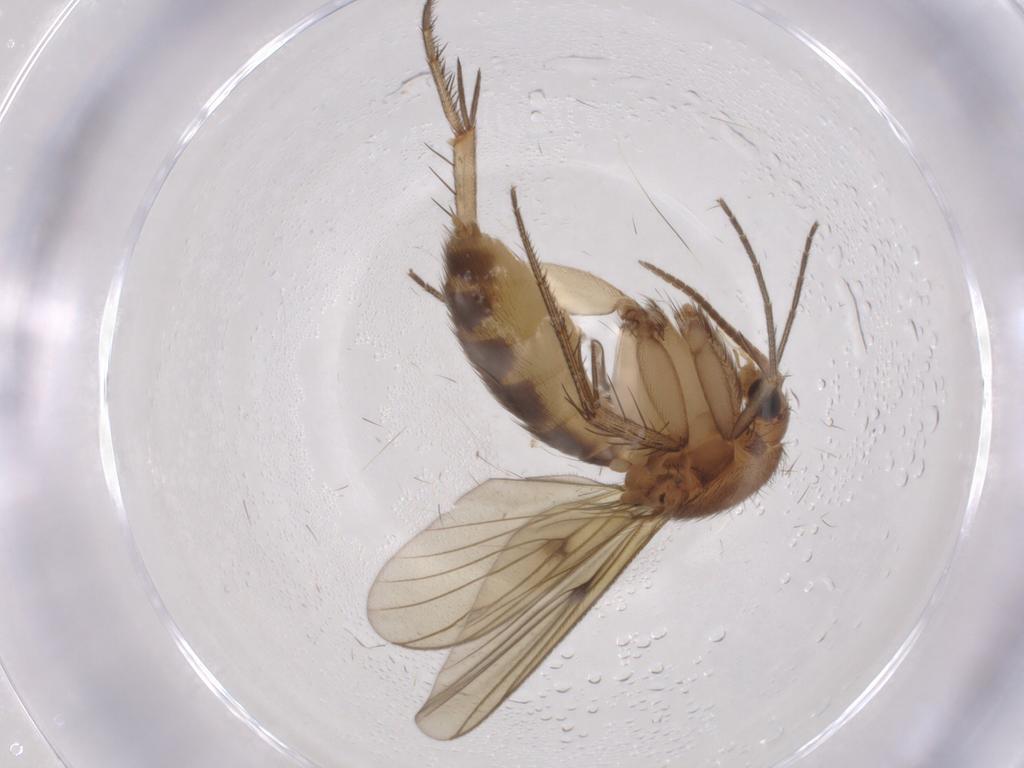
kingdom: Animalia
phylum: Arthropoda
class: Insecta
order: Diptera
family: Mycetophilidae
